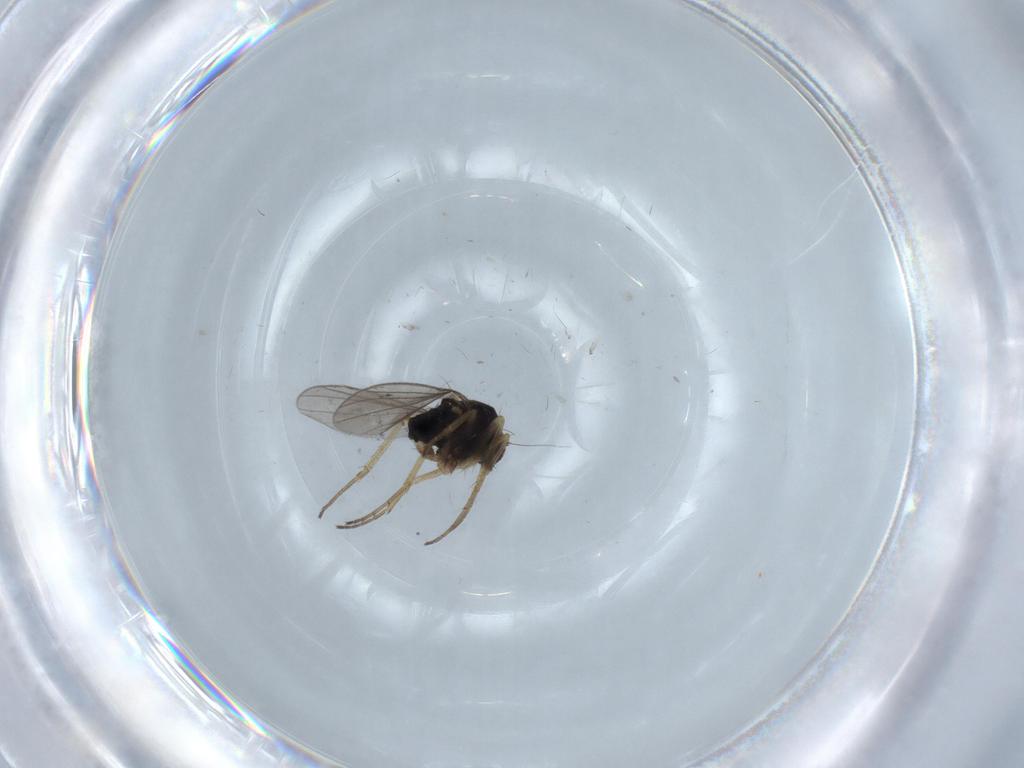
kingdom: Animalia
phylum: Arthropoda
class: Insecta
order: Diptera
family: Dolichopodidae
